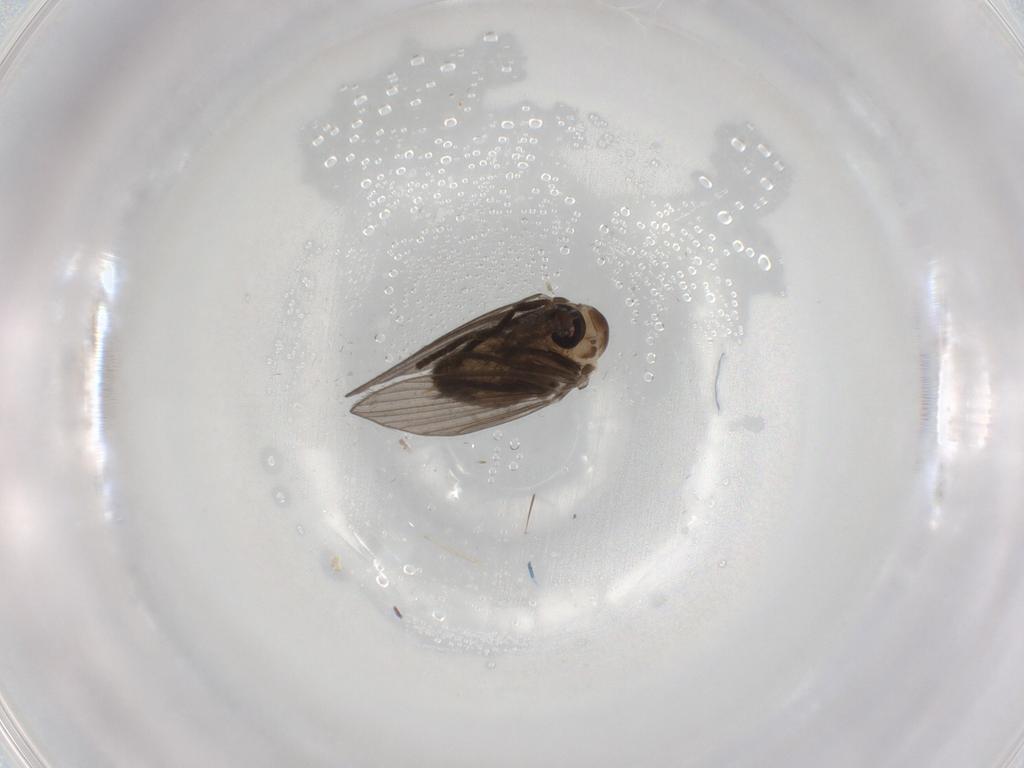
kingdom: Animalia
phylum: Arthropoda
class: Insecta
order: Diptera
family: Psychodidae
